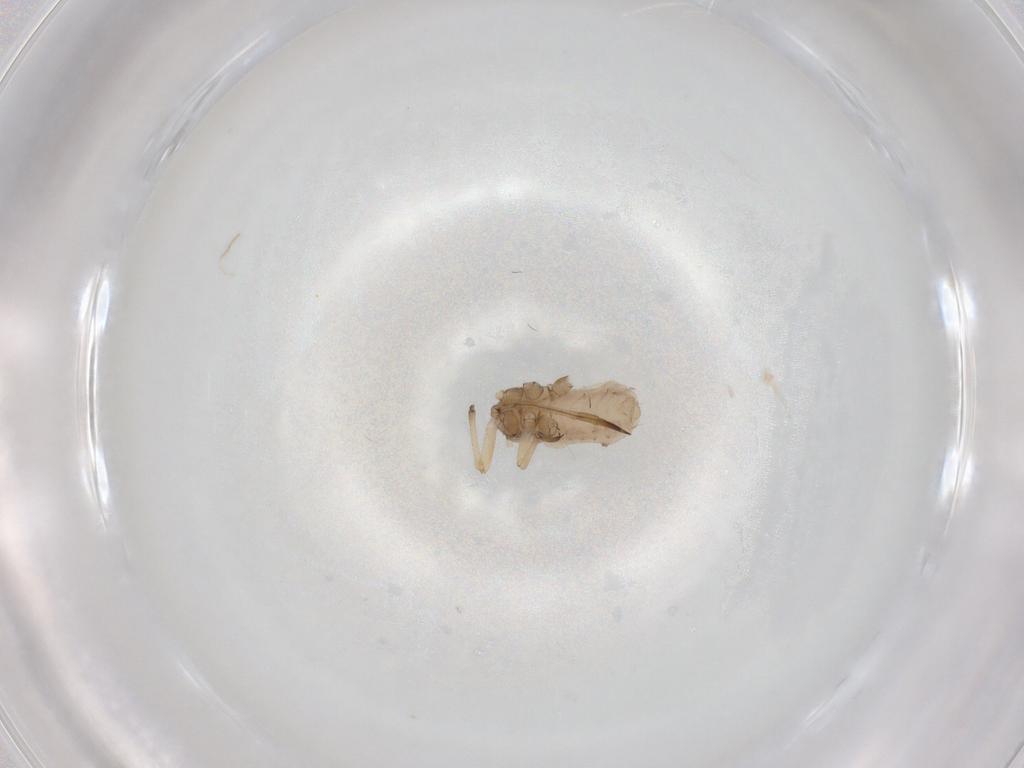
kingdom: Animalia
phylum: Arthropoda
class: Insecta
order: Hemiptera
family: Aphididae
